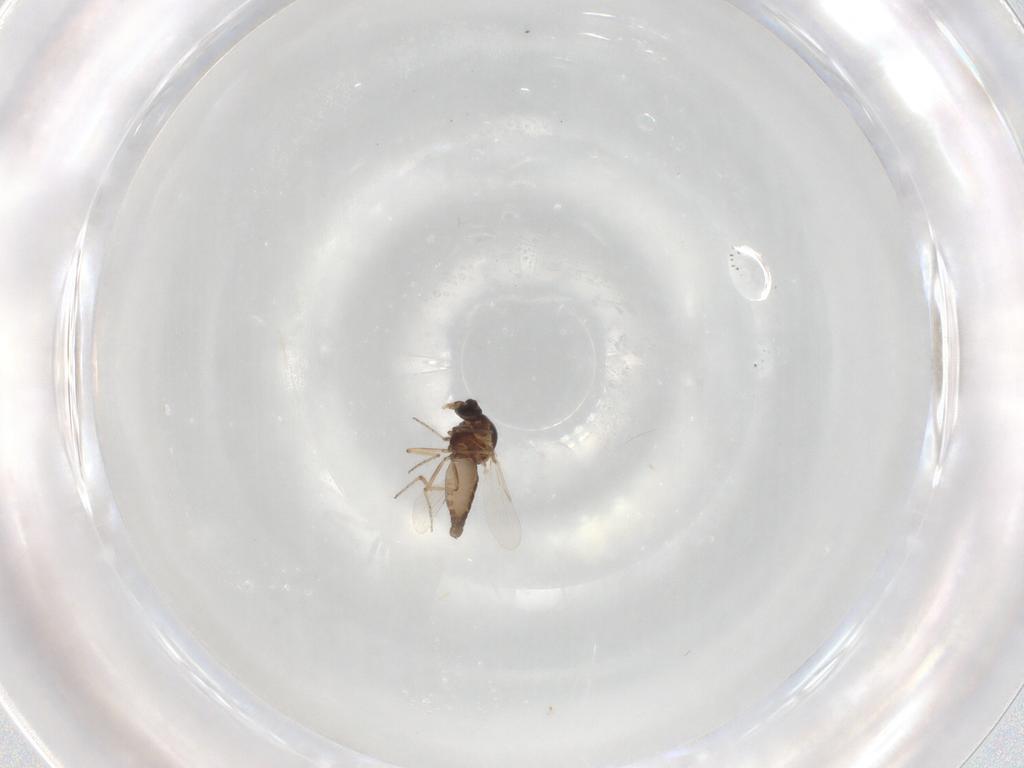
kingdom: Animalia
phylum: Arthropoda
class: Insecta
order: Diptera
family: Ceratopogonidae
